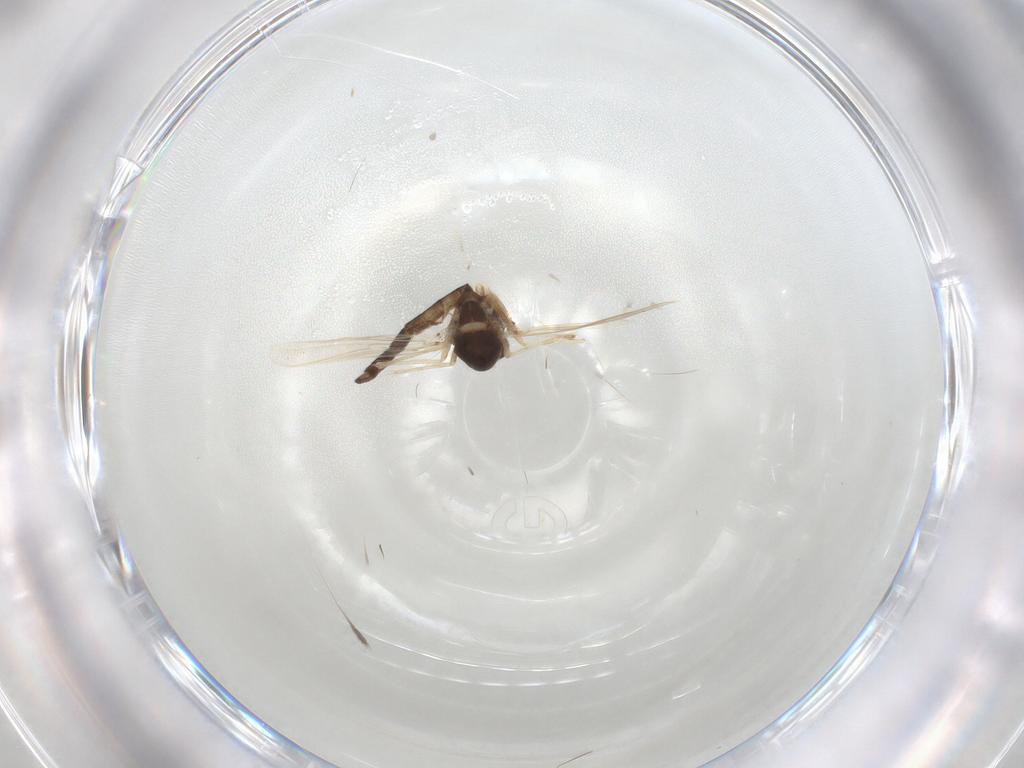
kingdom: Animalia
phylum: Arthropoda
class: Insecta
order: Diptera
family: Chironomidae
